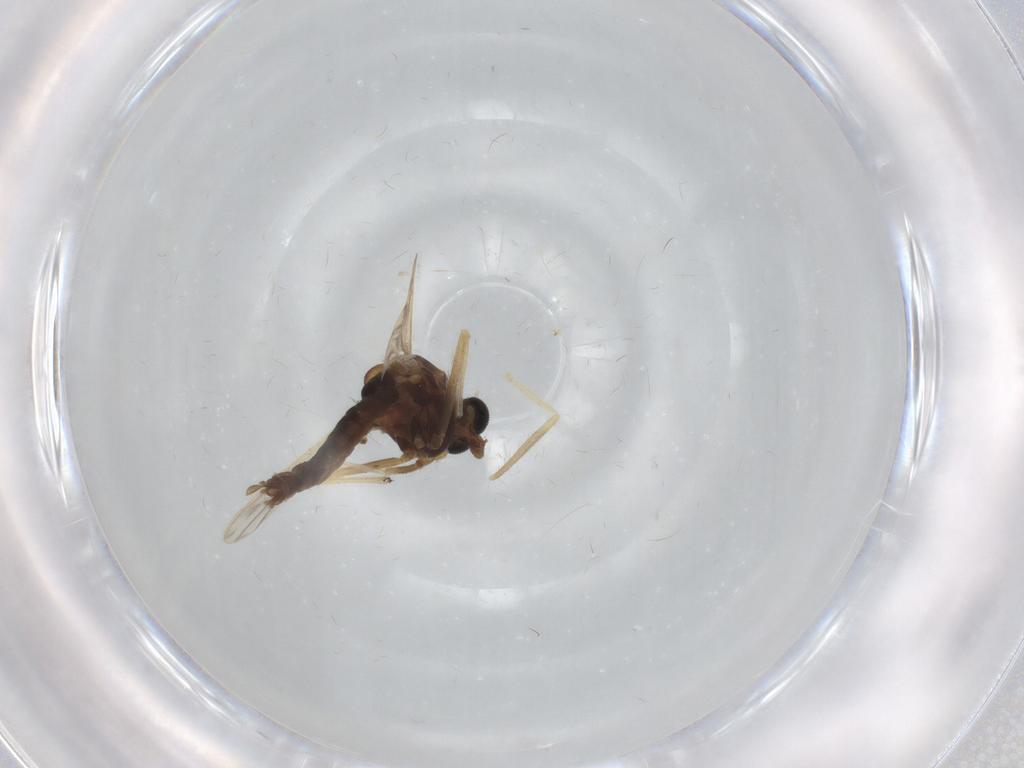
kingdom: Animalia
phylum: Arthropoda
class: Insecta
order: Diptera
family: Chironomidae
